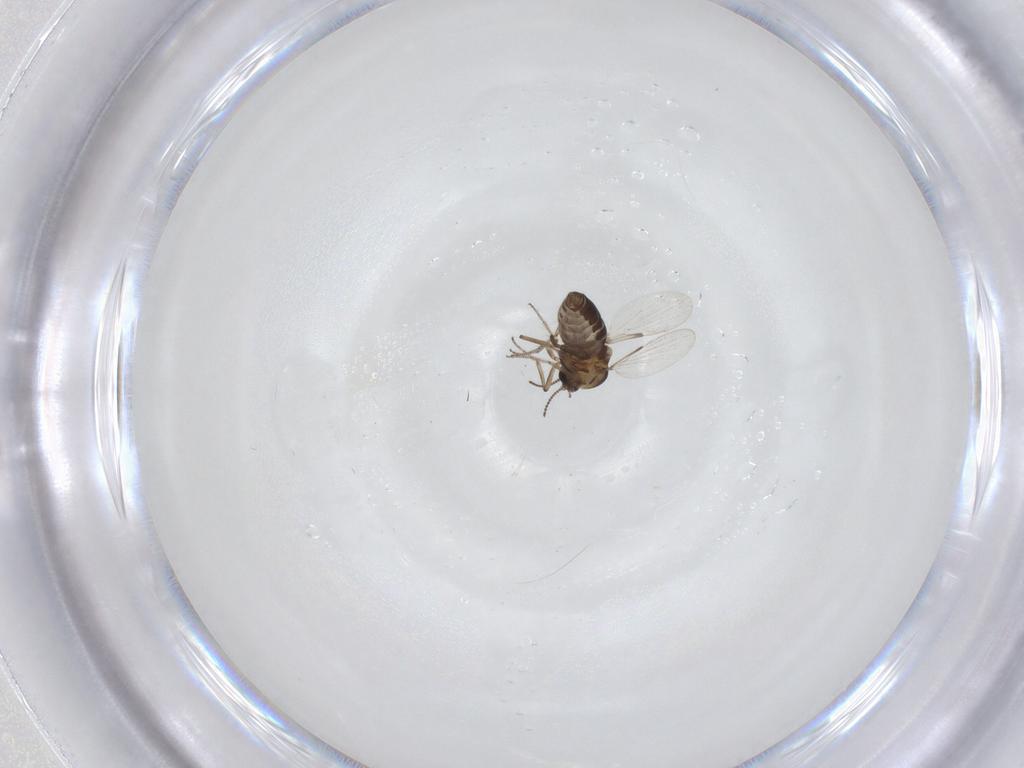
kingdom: Animalia
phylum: Arthropoda
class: Insecta
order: Diptera
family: Ceratopogonidae
